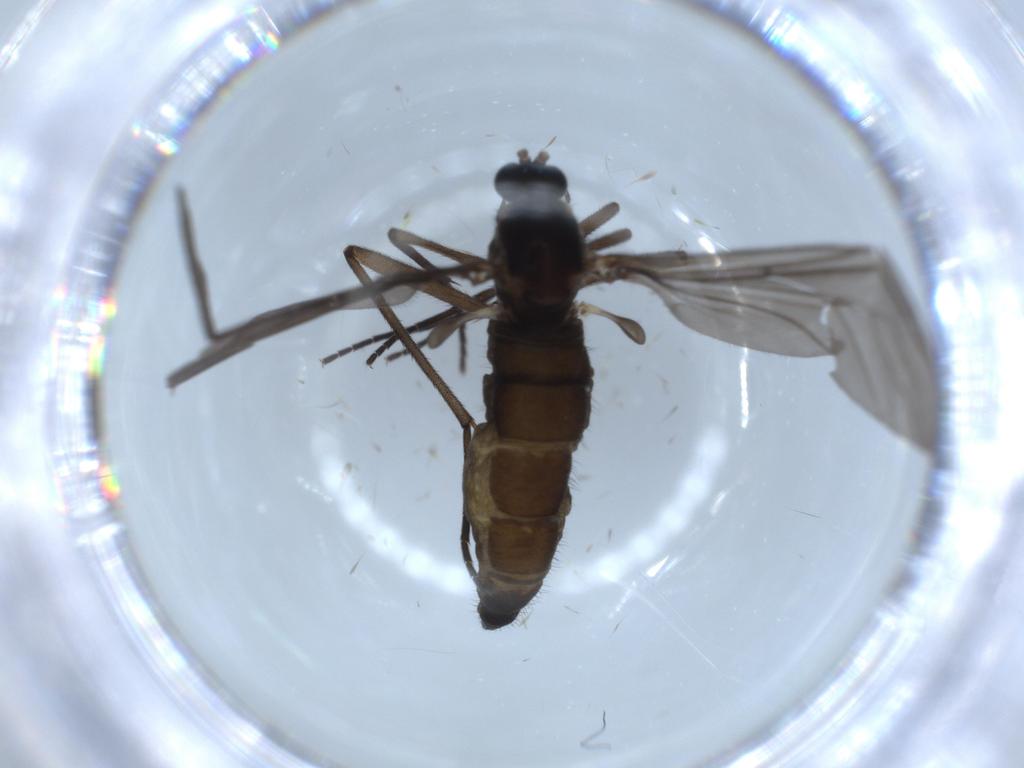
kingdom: Animalia
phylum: Arthropoda
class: Insecta
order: Diptera
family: Sciaridae
